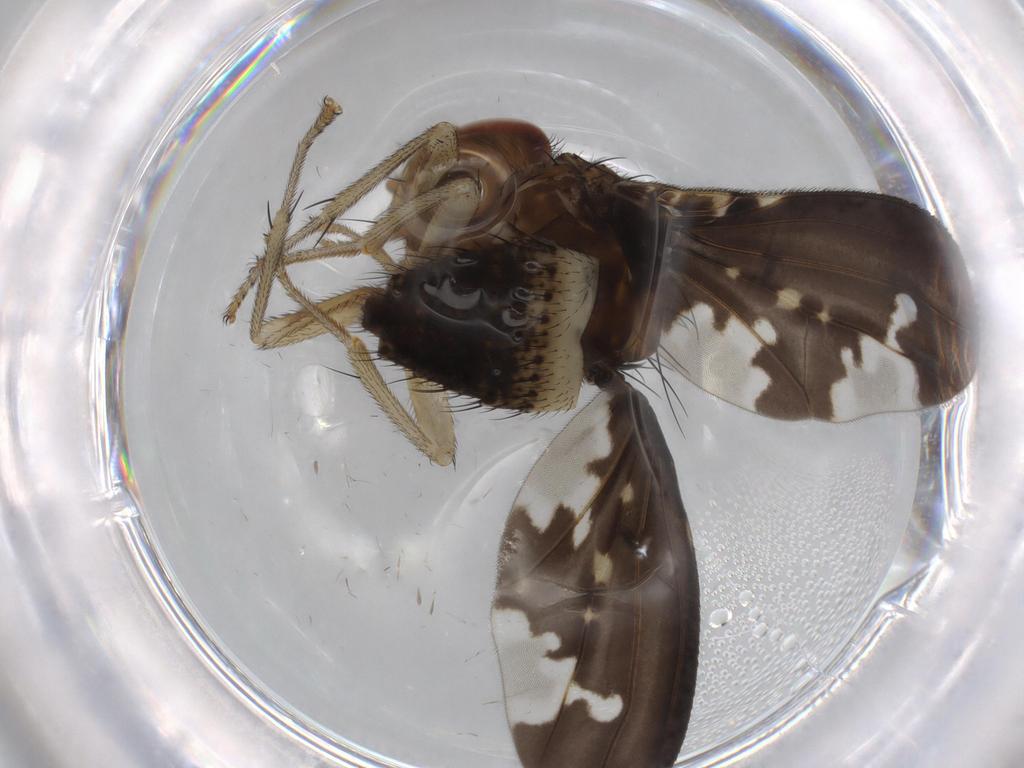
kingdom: Animalia
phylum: Arthropoda
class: Insecta
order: Diptera
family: Lauxaniidae
